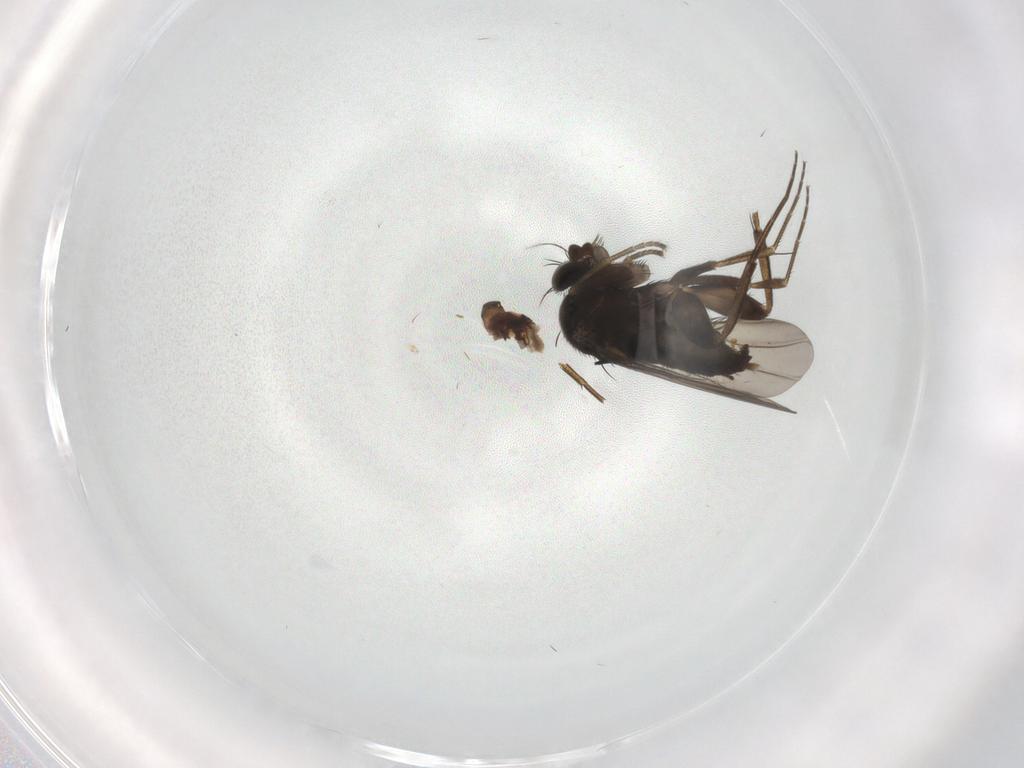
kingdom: Animalia
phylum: Arthropoda
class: Insecta
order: Diptera
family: Phoridae
